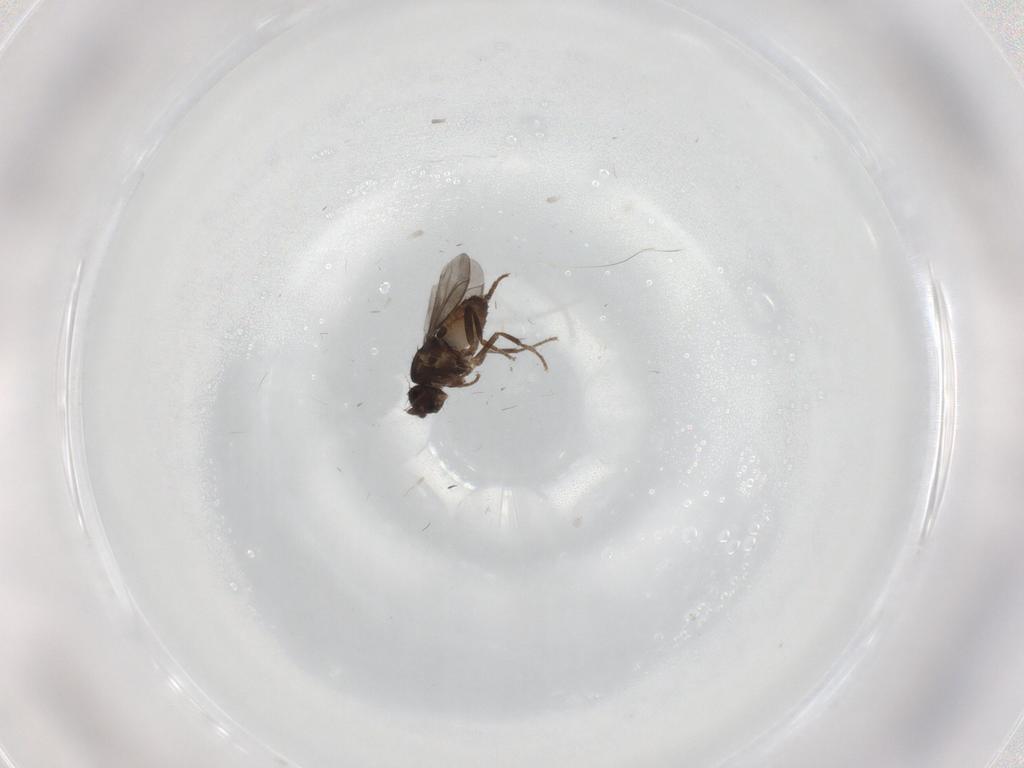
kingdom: Animalia
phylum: Arthropoda
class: Insecta
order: Diptera
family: Sphaeroceridae
